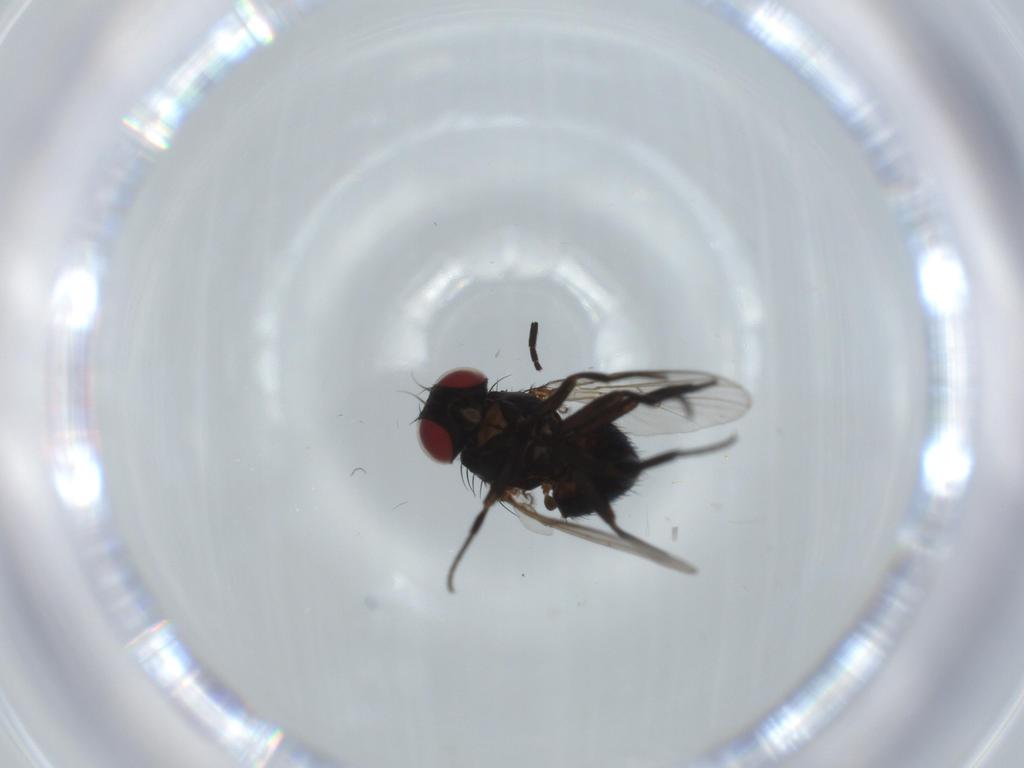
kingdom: Animalia
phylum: Arthropoda
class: Insecta
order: Diptera
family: Agromyzidae
